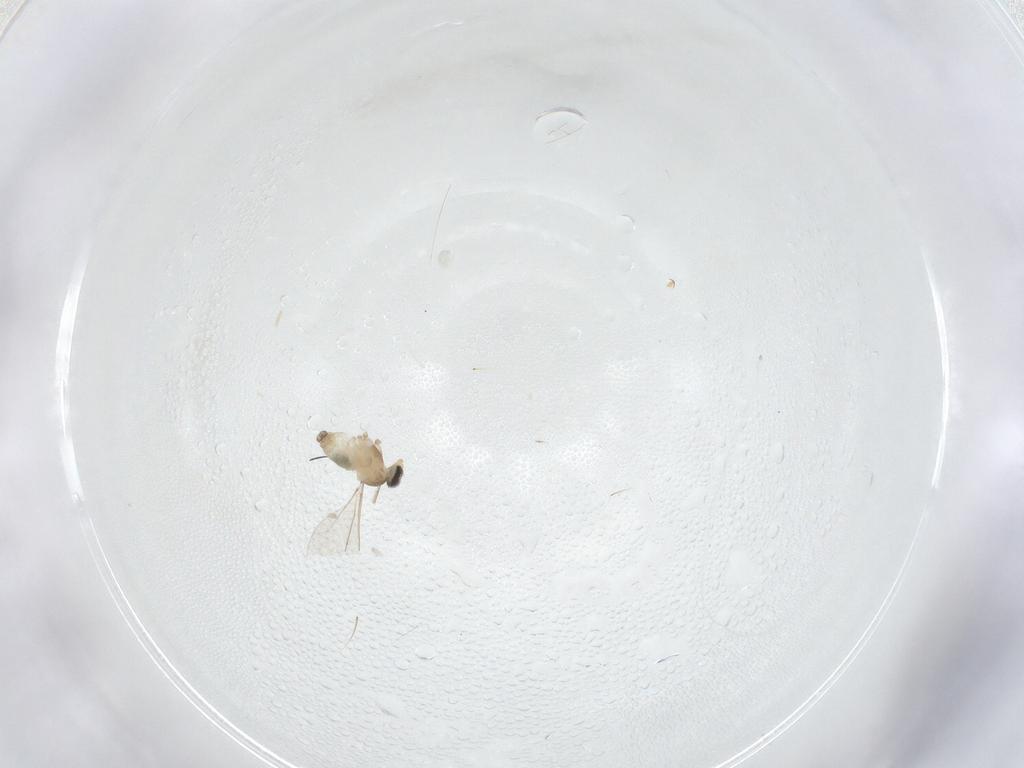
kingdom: Animalia
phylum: Arthropoda
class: Insecta
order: Diptera
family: Cecidomyiidae
